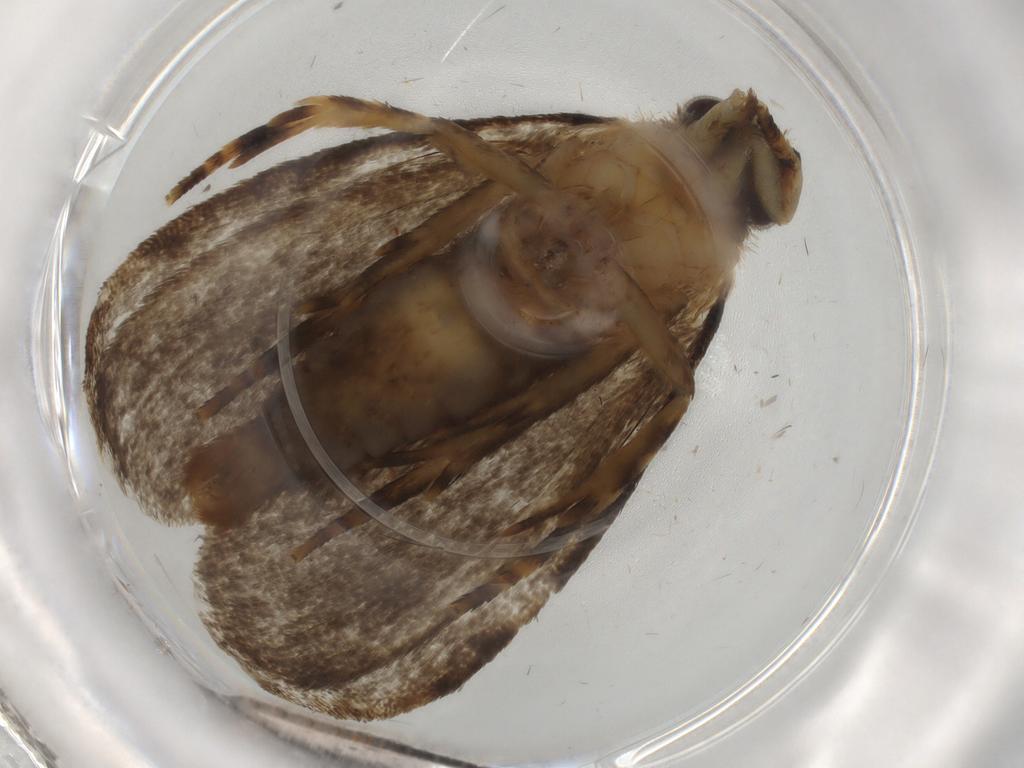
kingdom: Animalia
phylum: Arthropoda
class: Insecta
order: Lepidoptera
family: Tineidae
